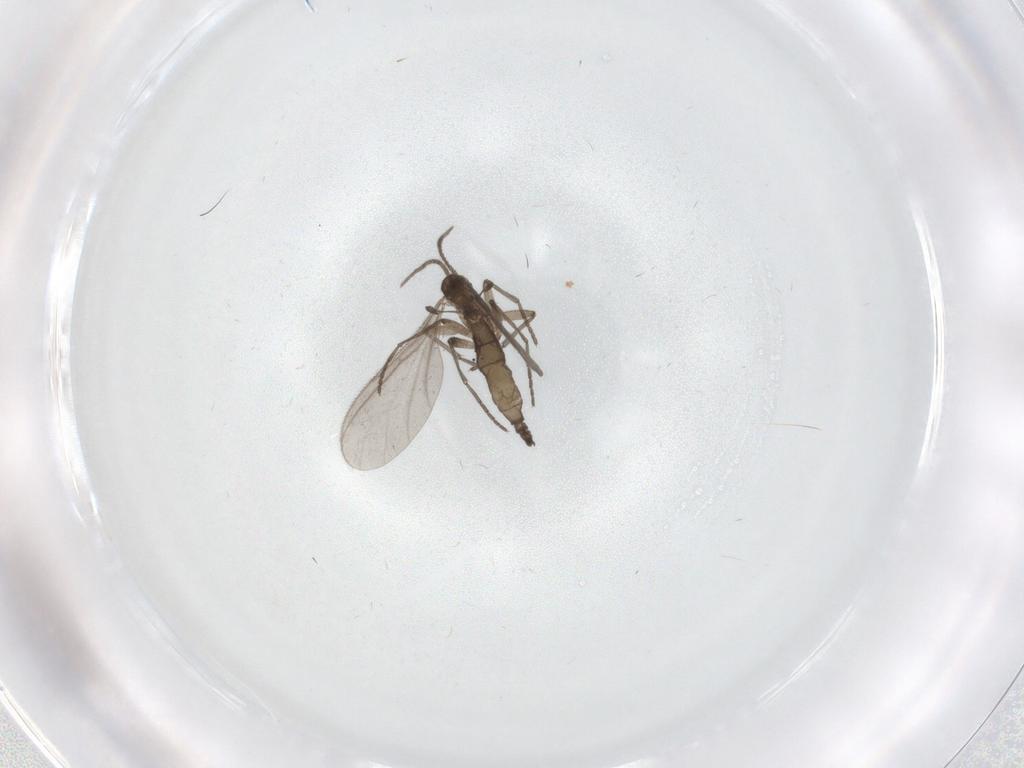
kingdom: Animalia
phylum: Arthropoda
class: Insecta
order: Diptera
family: Sciaridae
